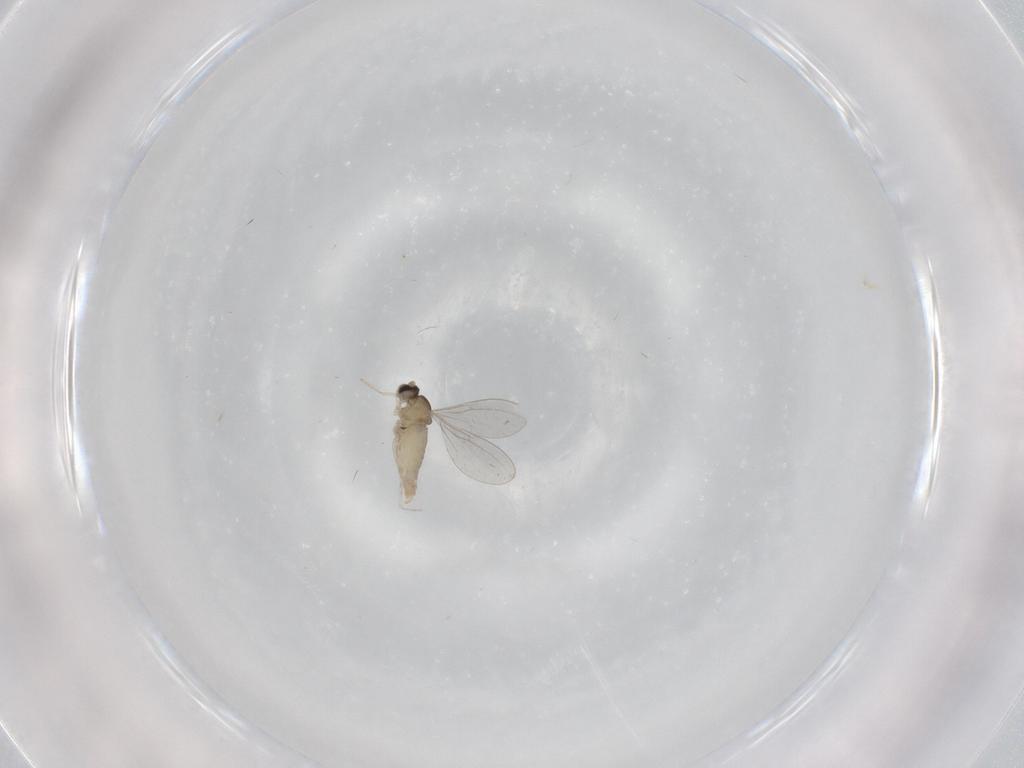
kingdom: Animalia
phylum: Arthropoda
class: Insecta
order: Diptera
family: Cecidomyiidae
